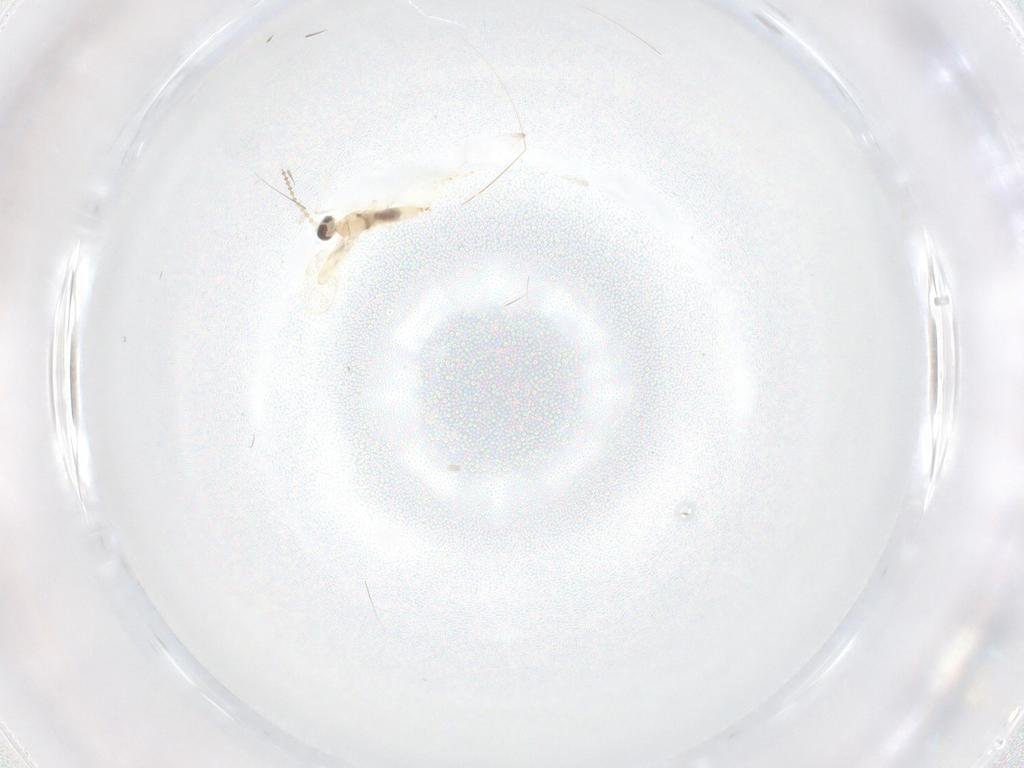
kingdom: Animalia
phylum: Arthropoda
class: Insecta
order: Diptera
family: Cecidomyiidae
